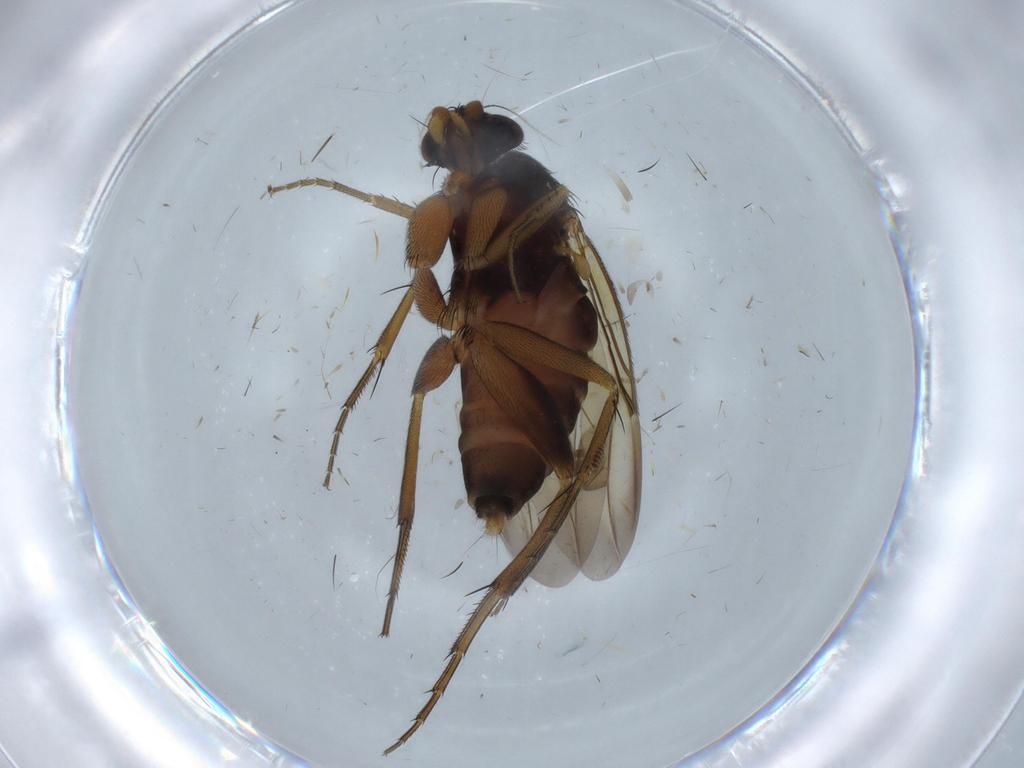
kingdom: Animalia
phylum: Arthropoda
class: Insecta
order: Diptera
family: Phoridae
